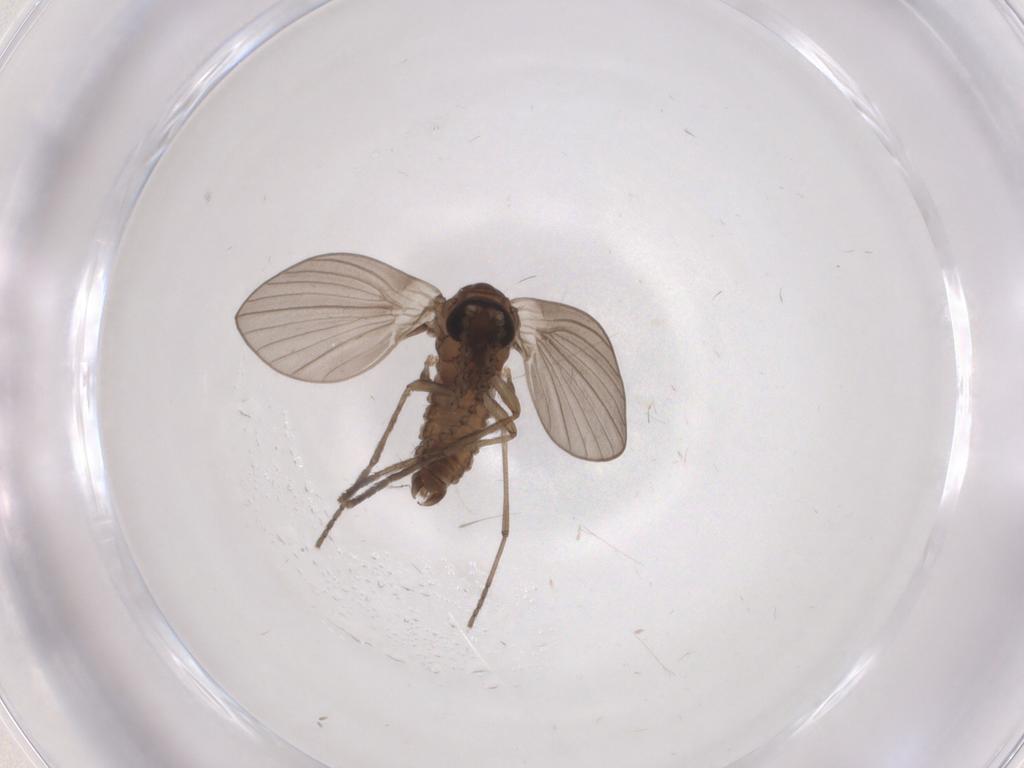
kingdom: Animalia
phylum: Arthropoda
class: Insecta
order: Diptera
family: Psychodidae
